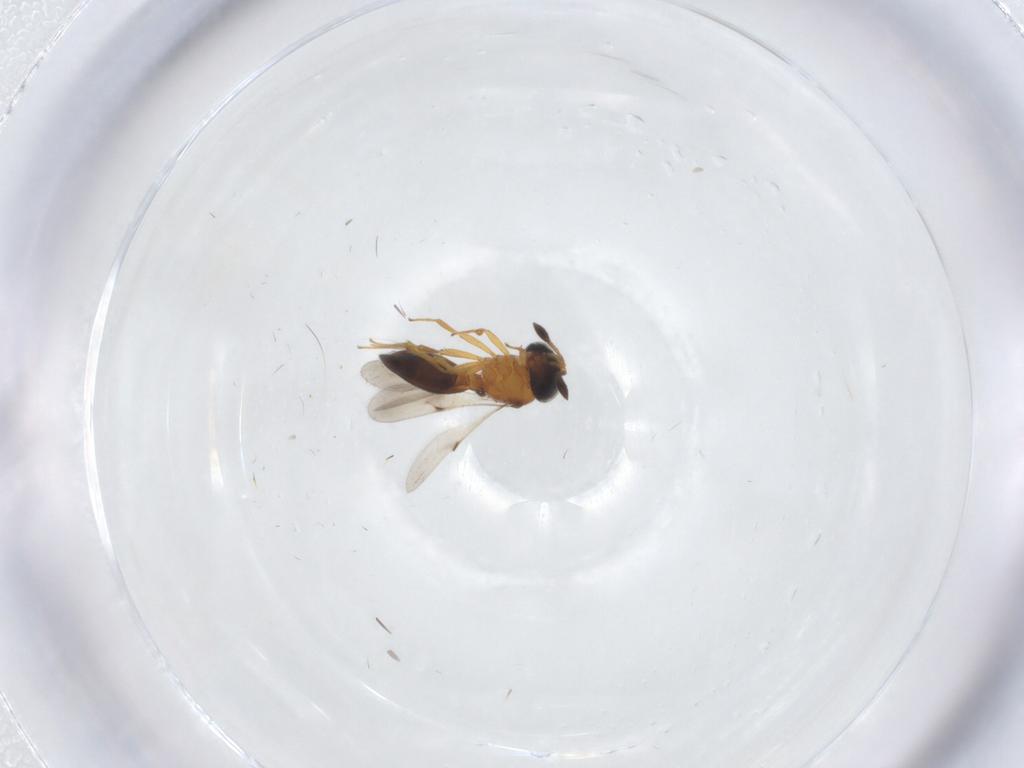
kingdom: Animalia
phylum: Arthropoda
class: Insecta
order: Hymenoptera
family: Scelionidae
